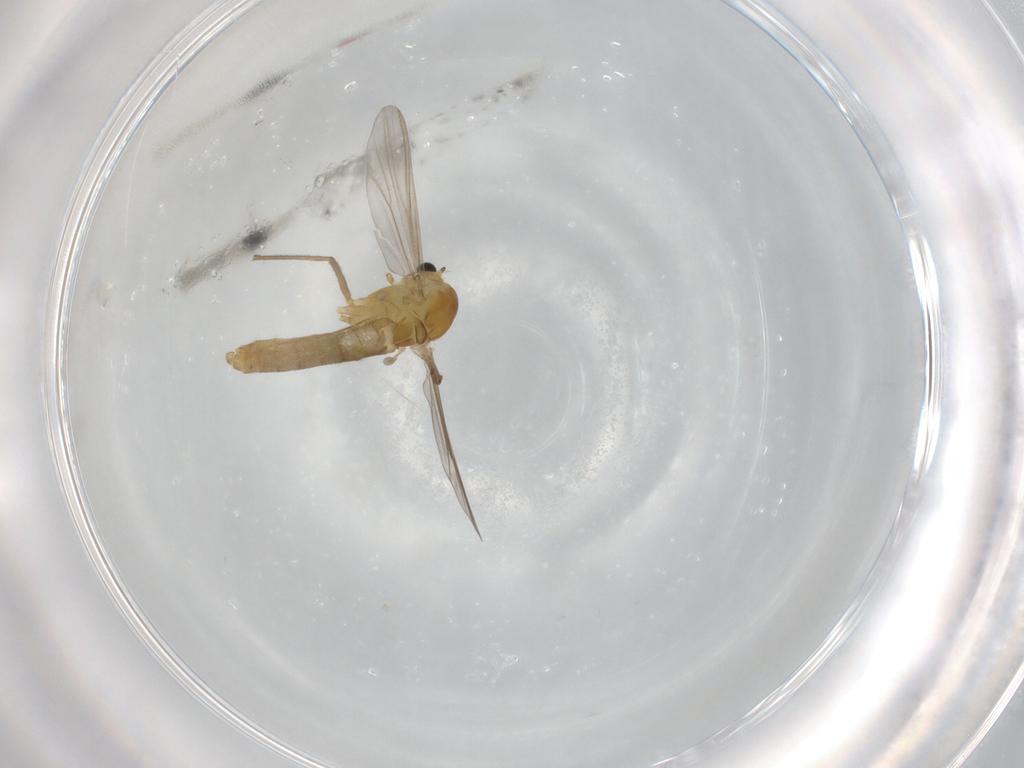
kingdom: Animalia
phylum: Arthropoda
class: Insecta
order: Diptera
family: Chironomidae
